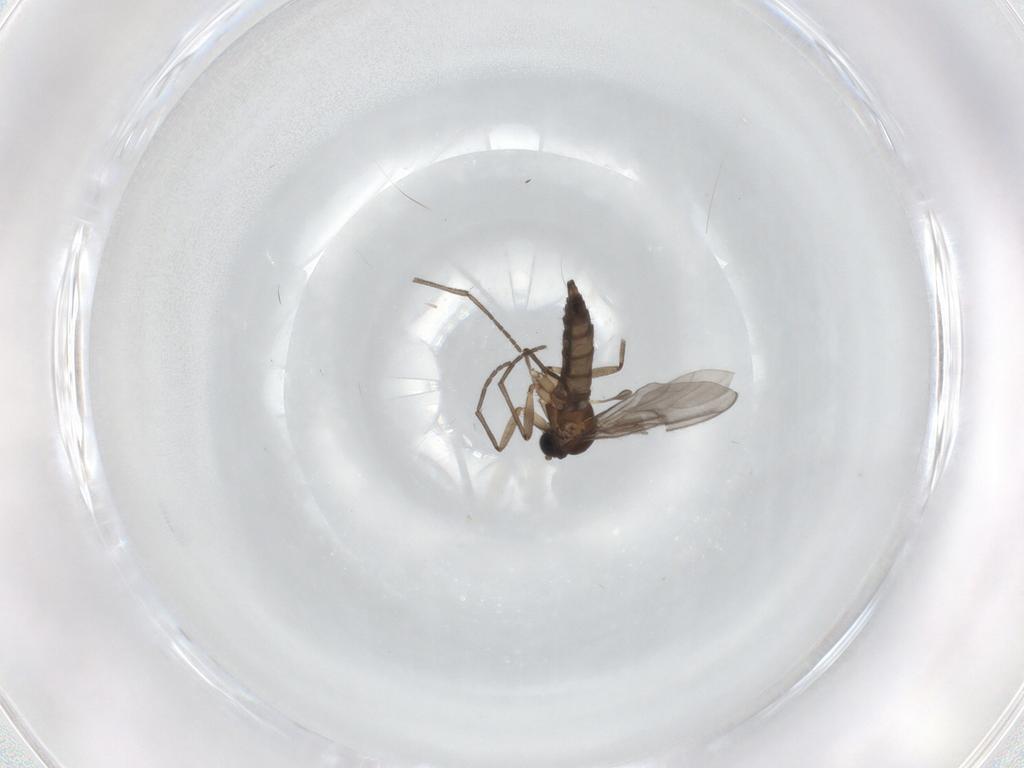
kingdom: Animalia
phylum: Arthropoda
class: Insecta
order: Diptera
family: Sciaridae
